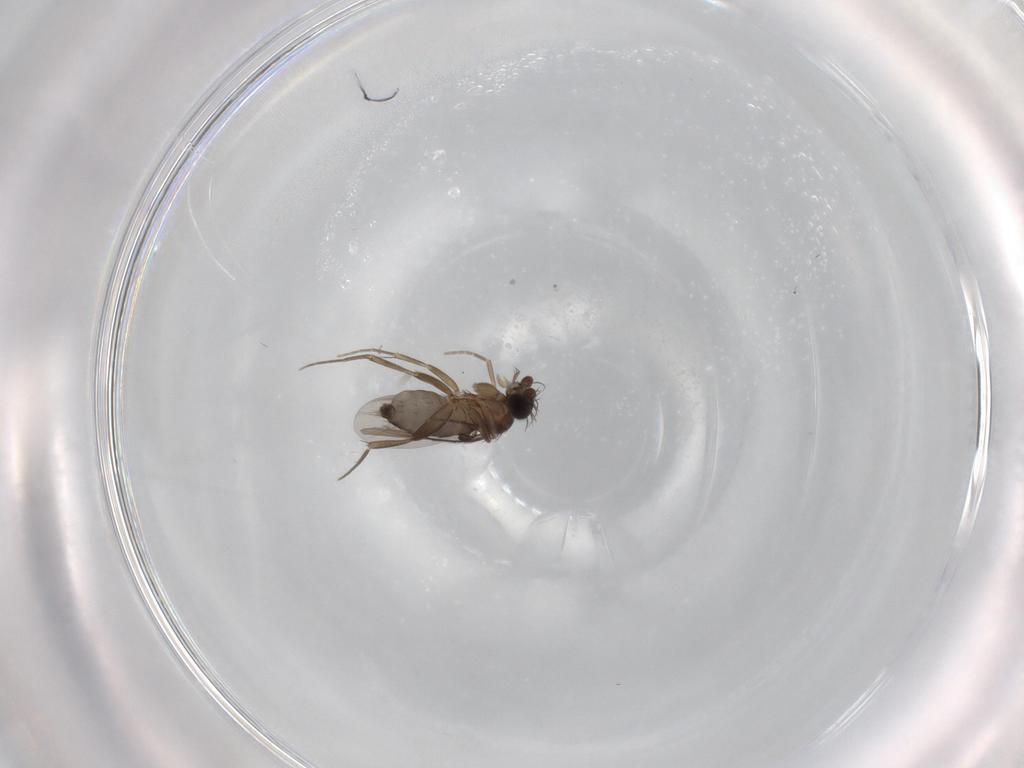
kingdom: Animalia
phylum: Arthropoda
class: Insecta
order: Diptera
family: Phoridae
